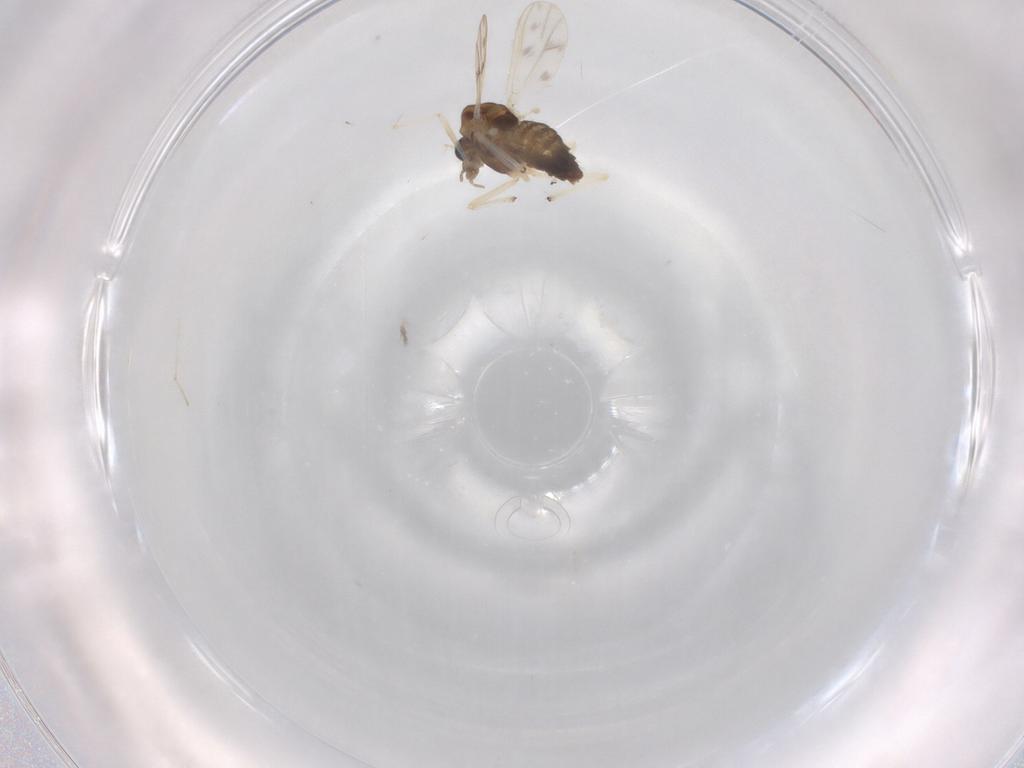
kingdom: Animalia
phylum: Arthropoda
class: Insecta
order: Diptera
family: Chironomidae
